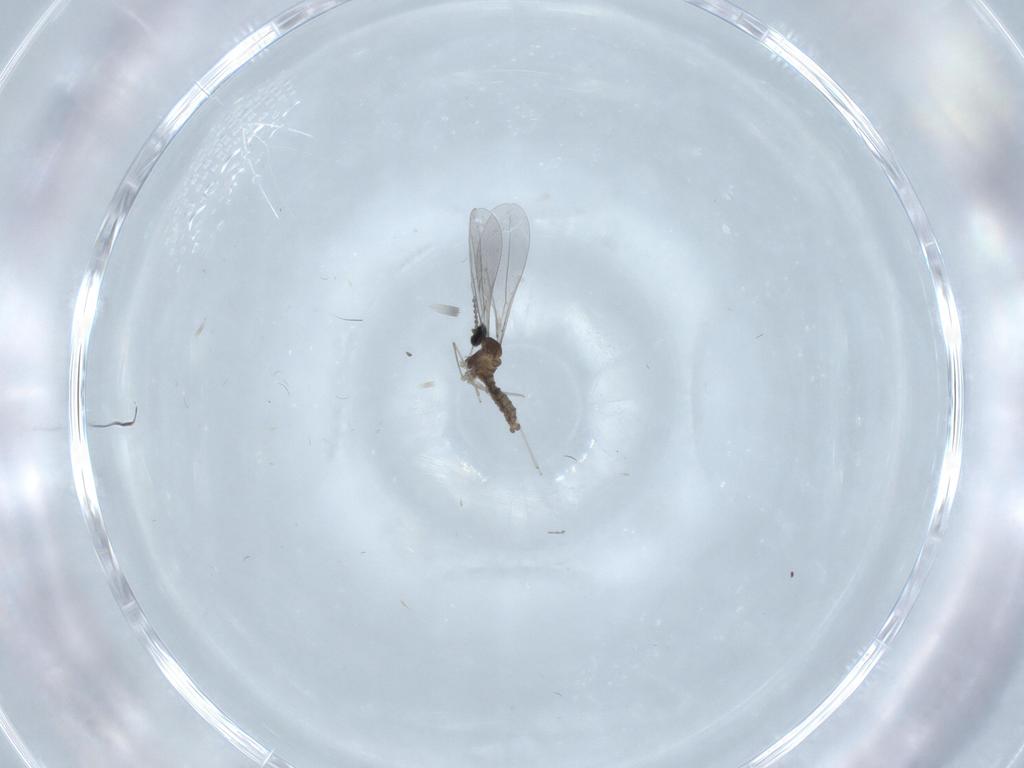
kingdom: Animalia
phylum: Arthropoda
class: Insecta
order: Diptera
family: Cecidomyiidae
